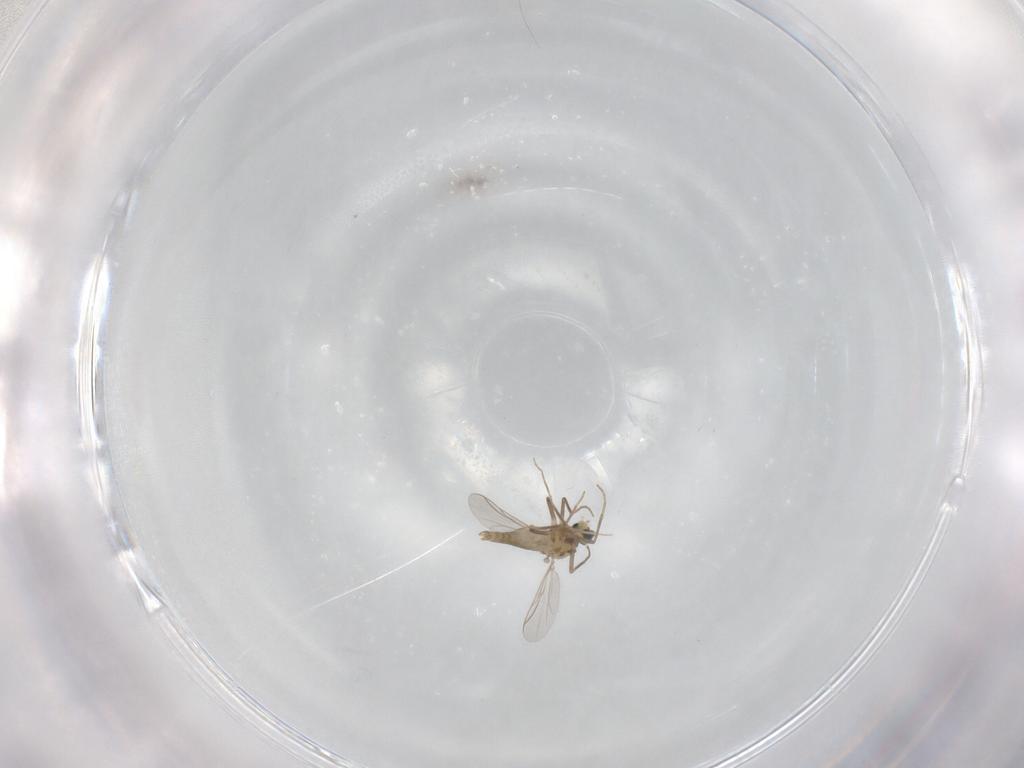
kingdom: Animalia
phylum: Arthropoda
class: Insecta
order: Diptera
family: Chironomidae
